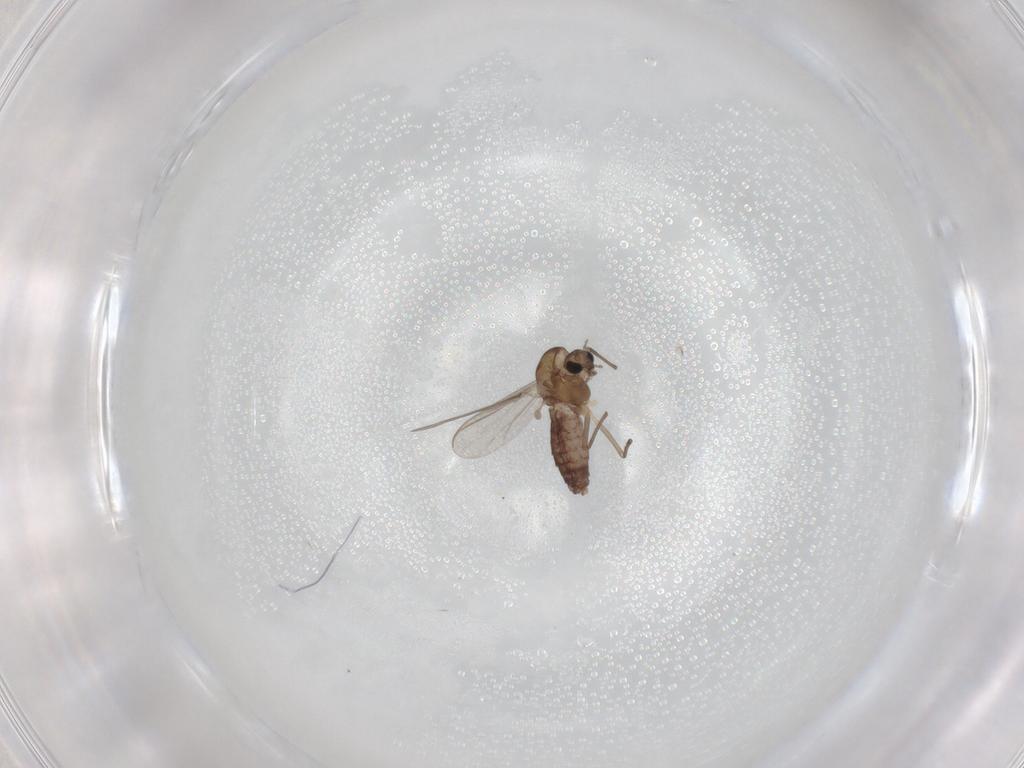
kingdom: Animalia
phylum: Arthropoda
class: Insecta
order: Diptera
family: Chironomidae
